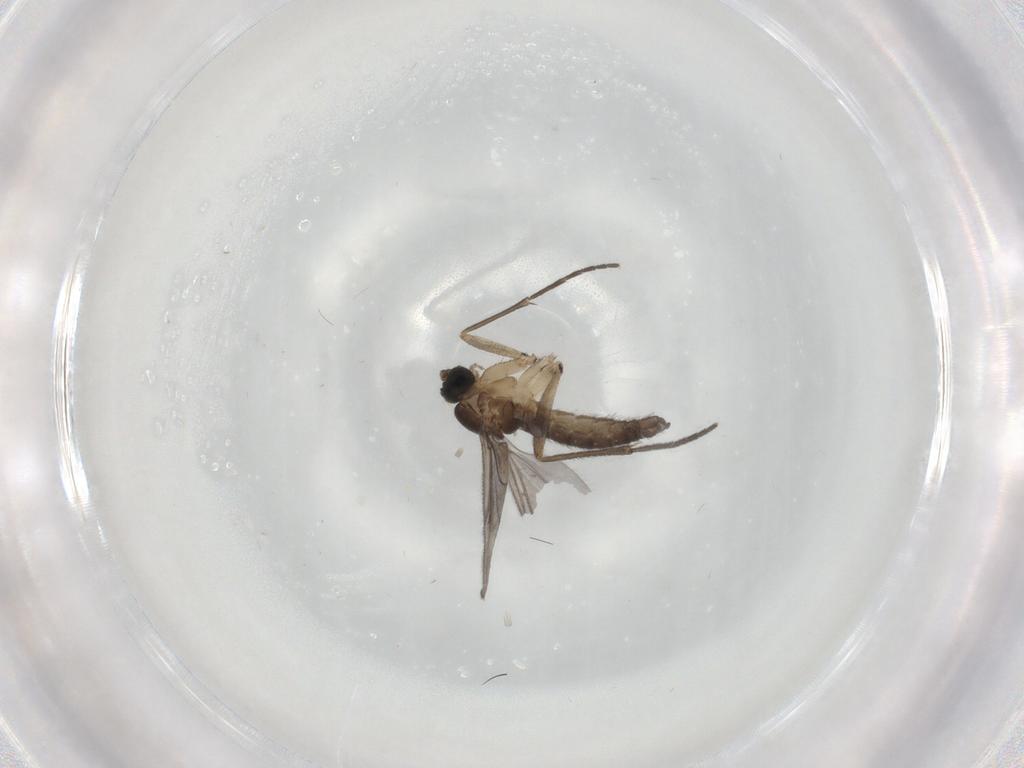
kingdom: Animalia
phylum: Arthropoda
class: Insecta
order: Diptera
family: Sciaridae
